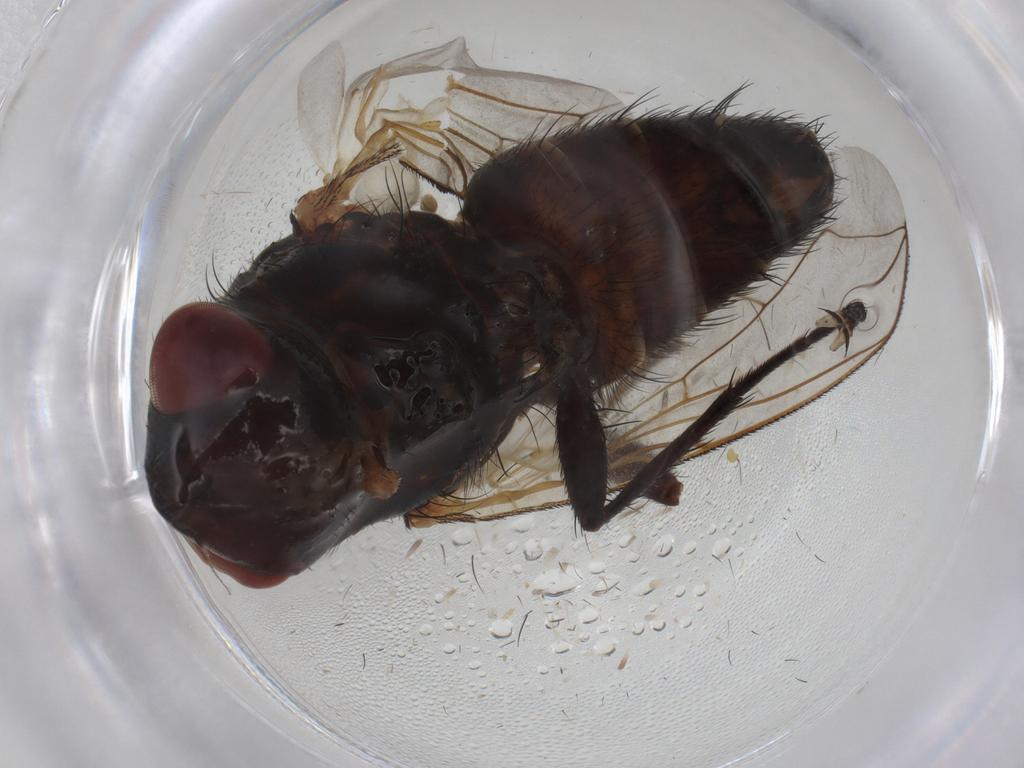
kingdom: Animalia
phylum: Arthropoda
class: Insecta
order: Diptera
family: Sarcophagidae
